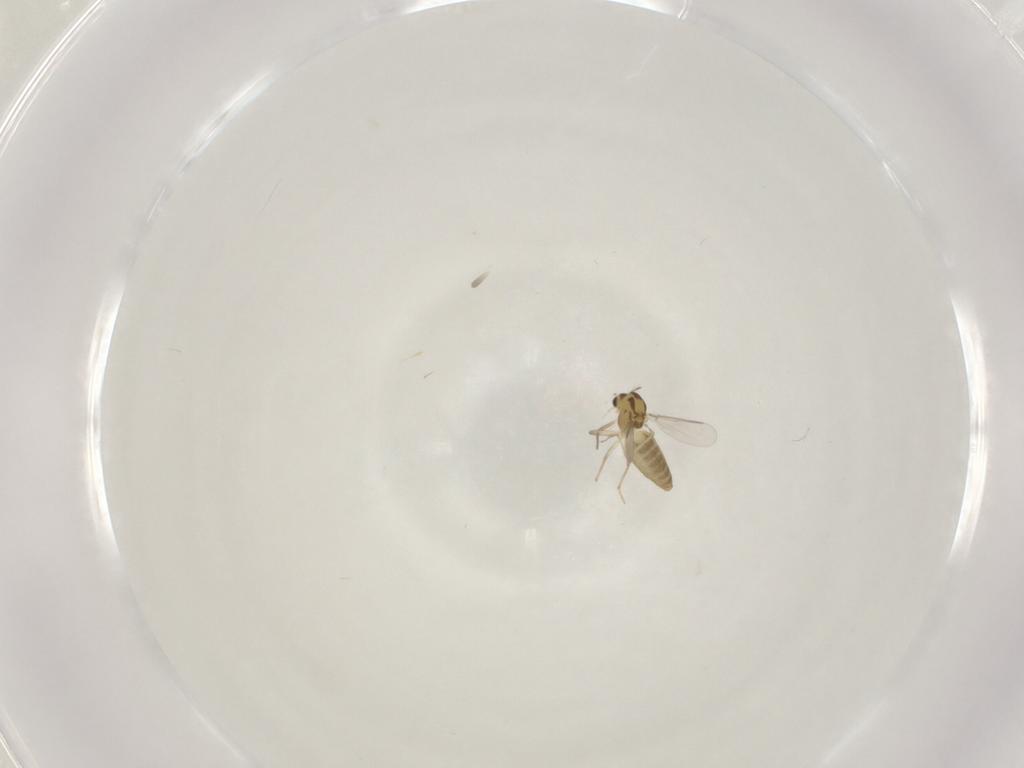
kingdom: Animalia
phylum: Arthropoda
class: Insecta
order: Diptera
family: Cecidomyiidae
